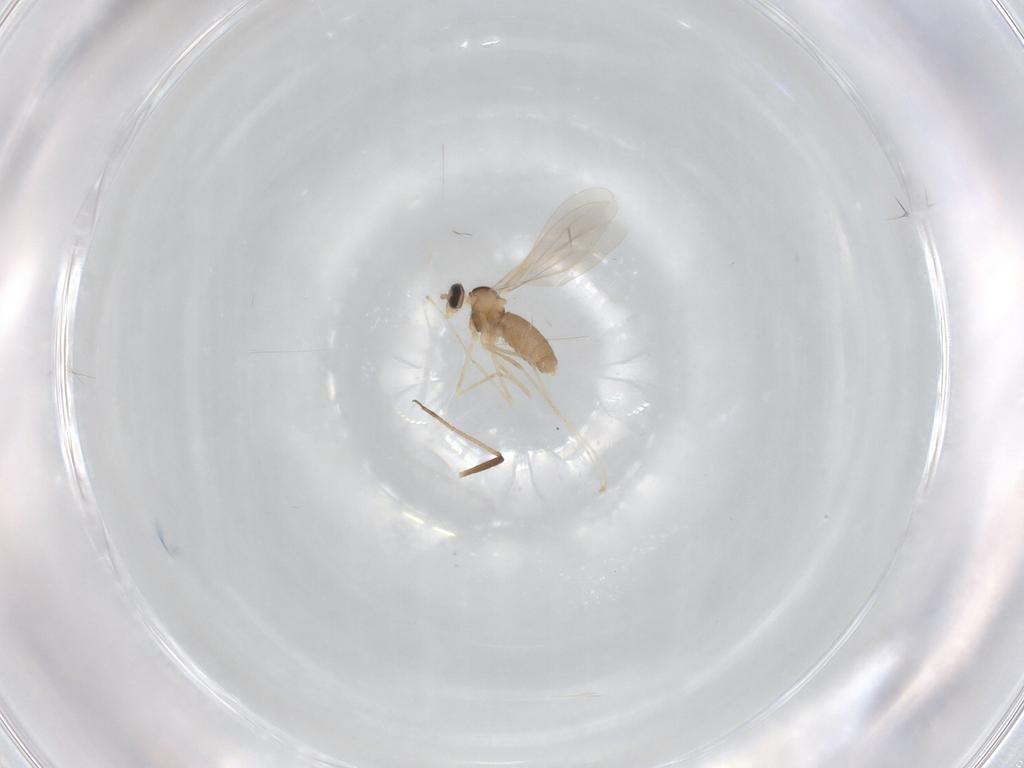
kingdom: Animalia
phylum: Arthropoda
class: Insecta
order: Diptera
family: Cecidomyiidae
